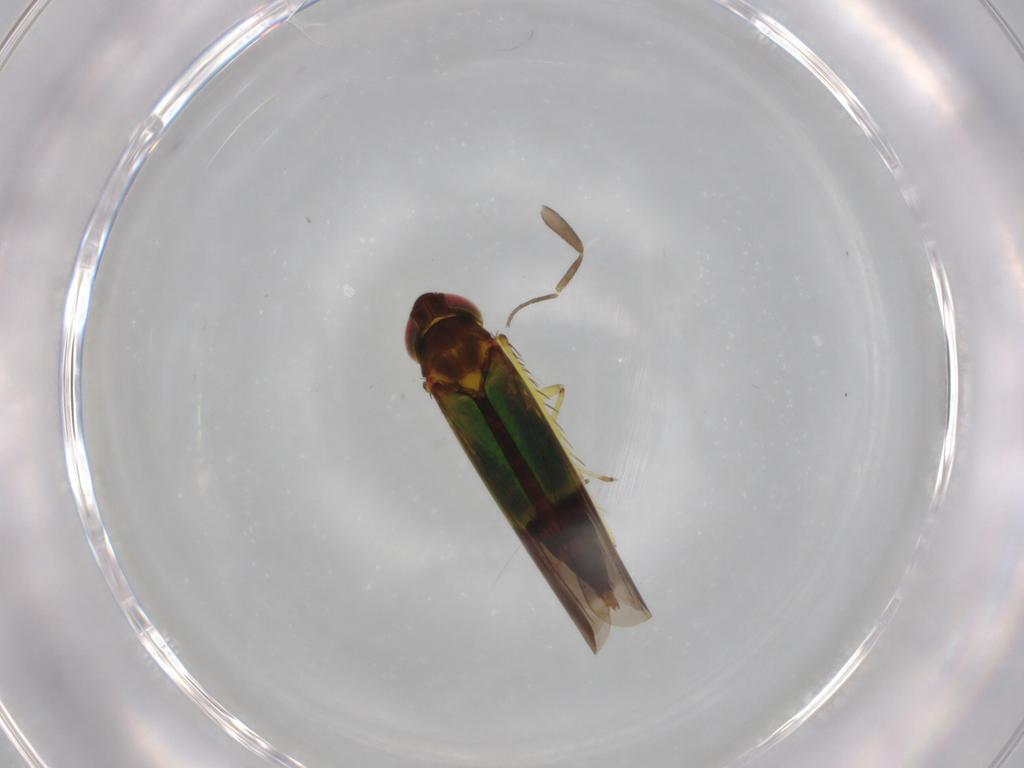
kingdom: Animalia
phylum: Arthropoda
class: Insecta
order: Hemiptera
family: Cicadellidae
